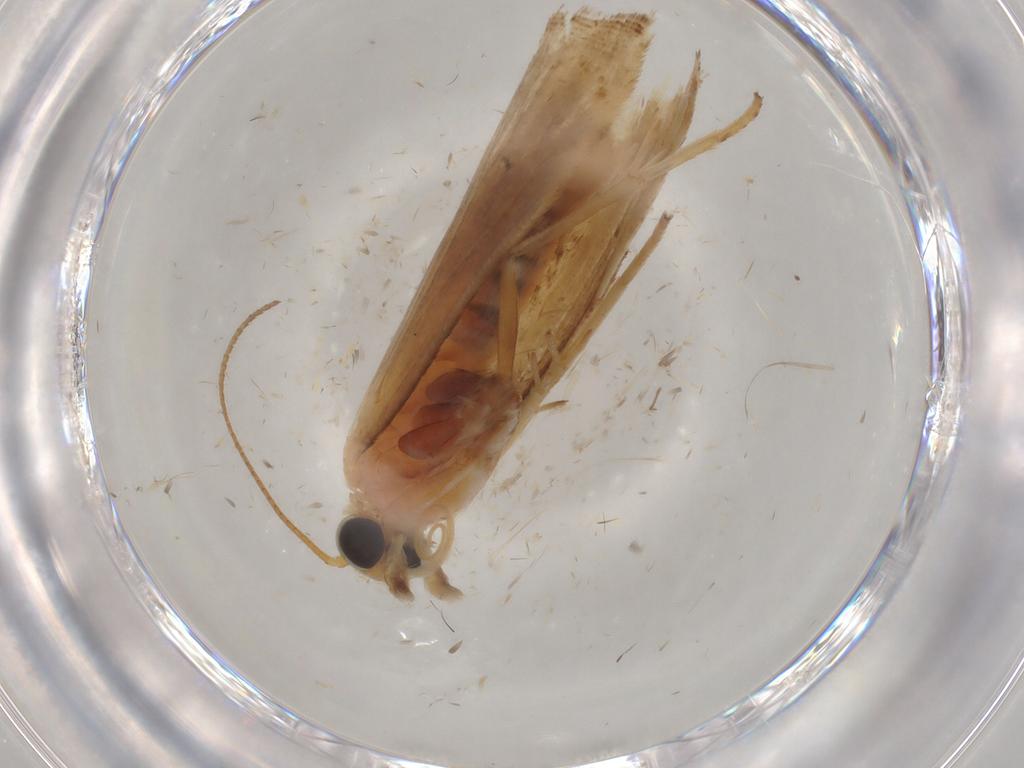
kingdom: Animalia
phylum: Arthropoda
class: Insecta
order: Lepidoptera
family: Pyralidae
